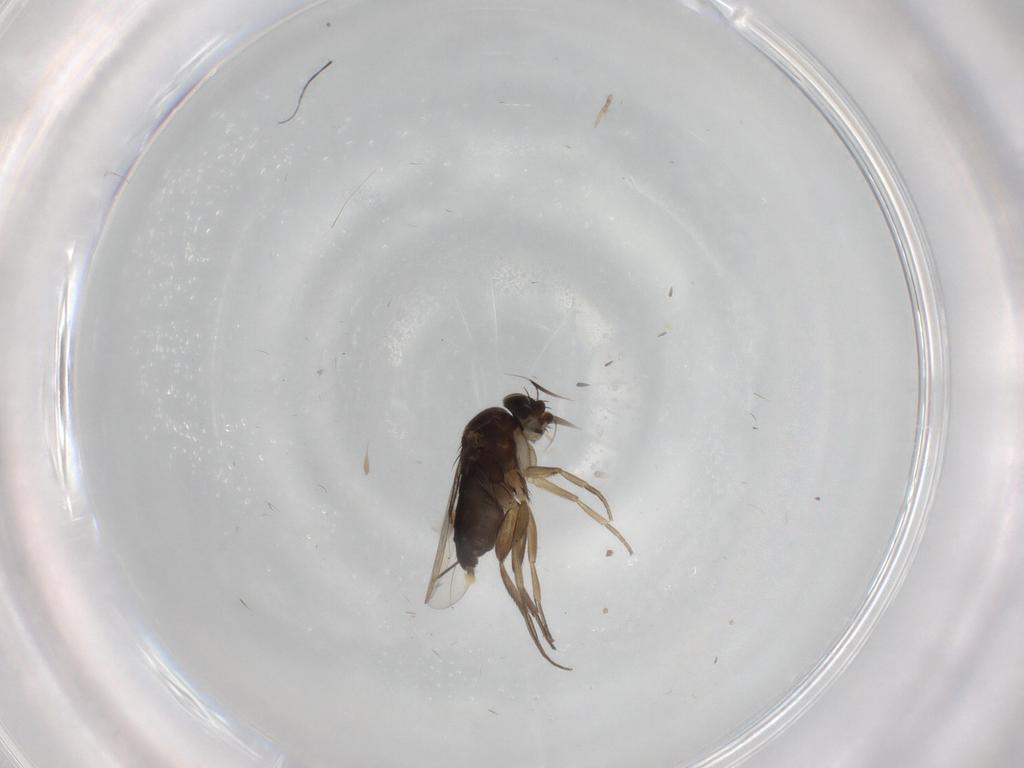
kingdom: Animalia
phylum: Arthropoda
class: Insecta
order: Diptera
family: Phoridae
